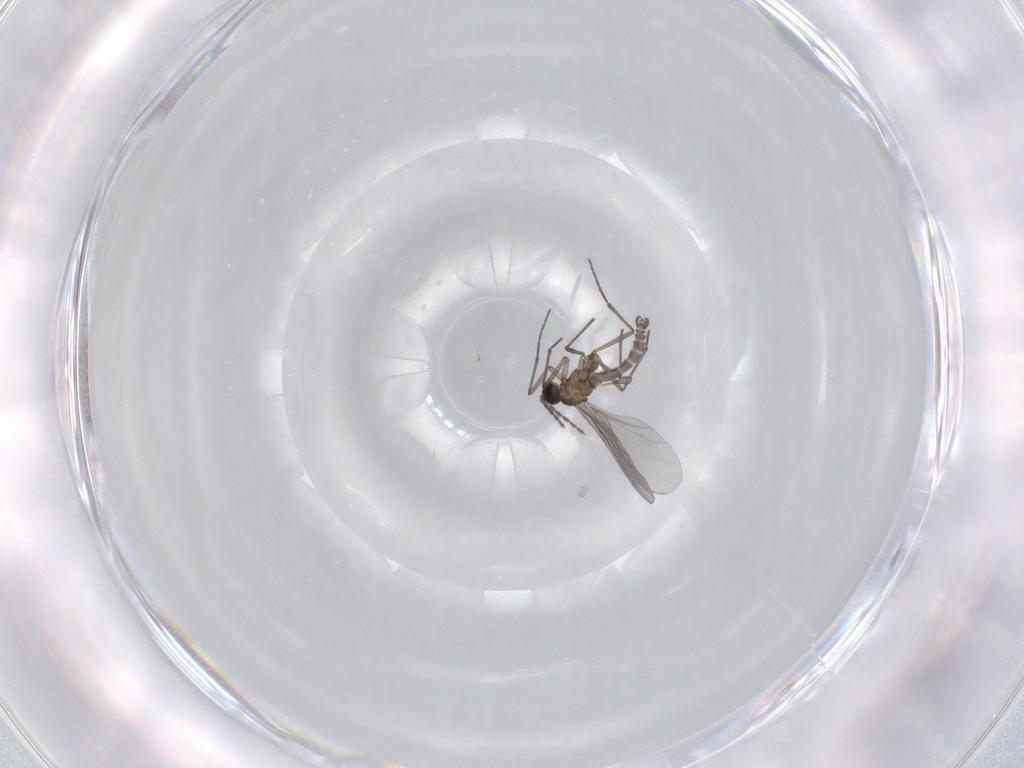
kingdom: Animalia
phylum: Arthropoda
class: Insecta
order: Diptera
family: Sciaridae
